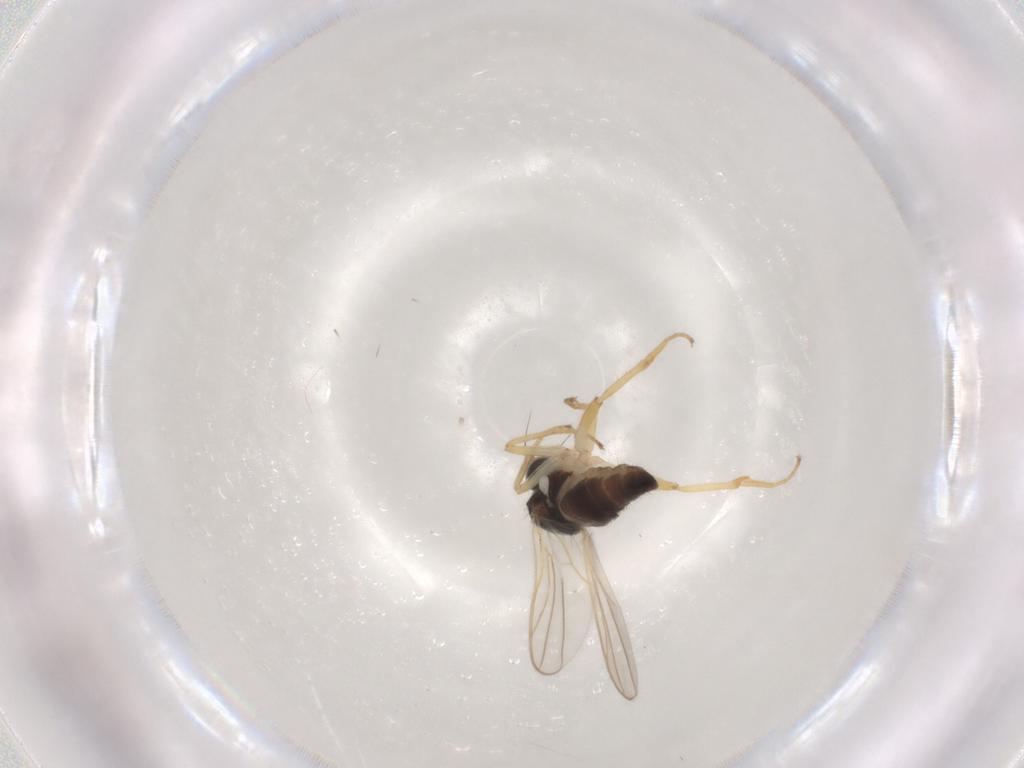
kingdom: Animalia
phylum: Arthropoda
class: Insecta
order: Diptera
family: Hybotidae
